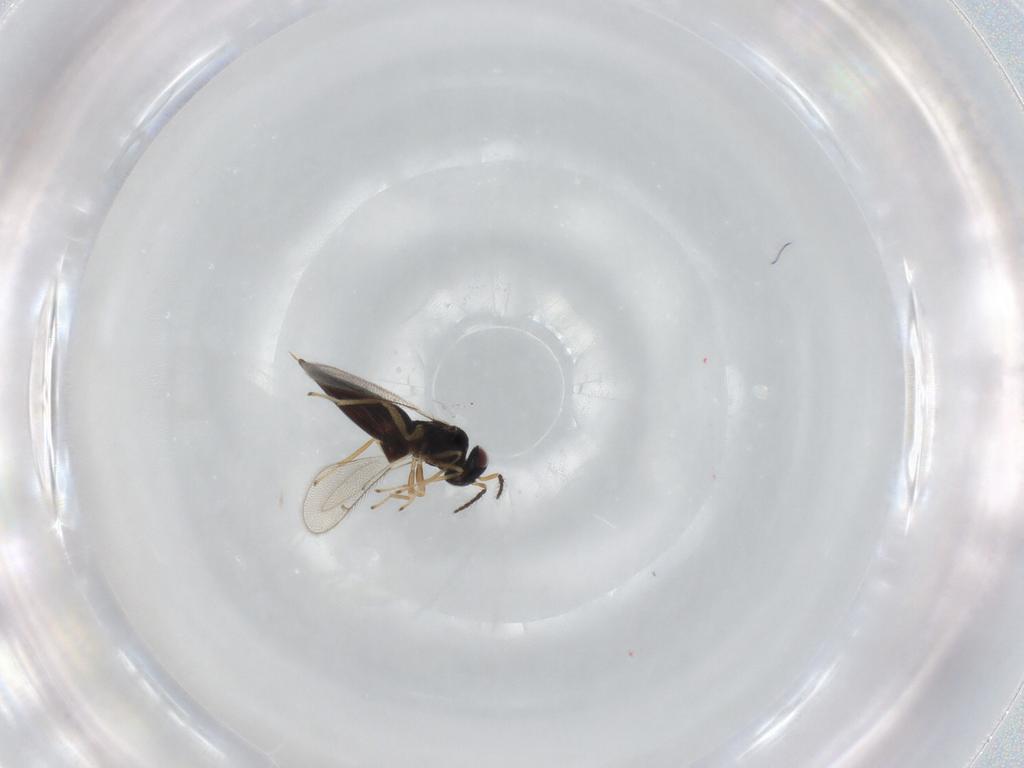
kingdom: Animalia
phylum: Arthropoda
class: Insecta
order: Hymenoptera
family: Eulophidae
